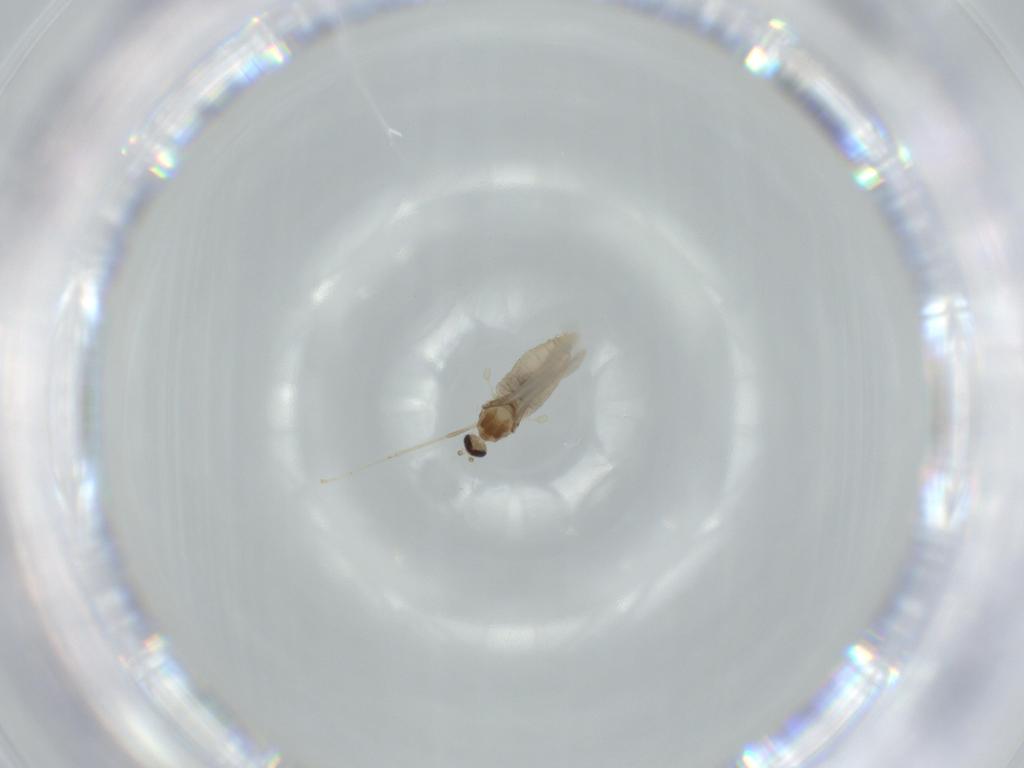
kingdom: Animalia
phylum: Arthropoda
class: Insecta
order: Diptera
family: Cecidomyiidae
